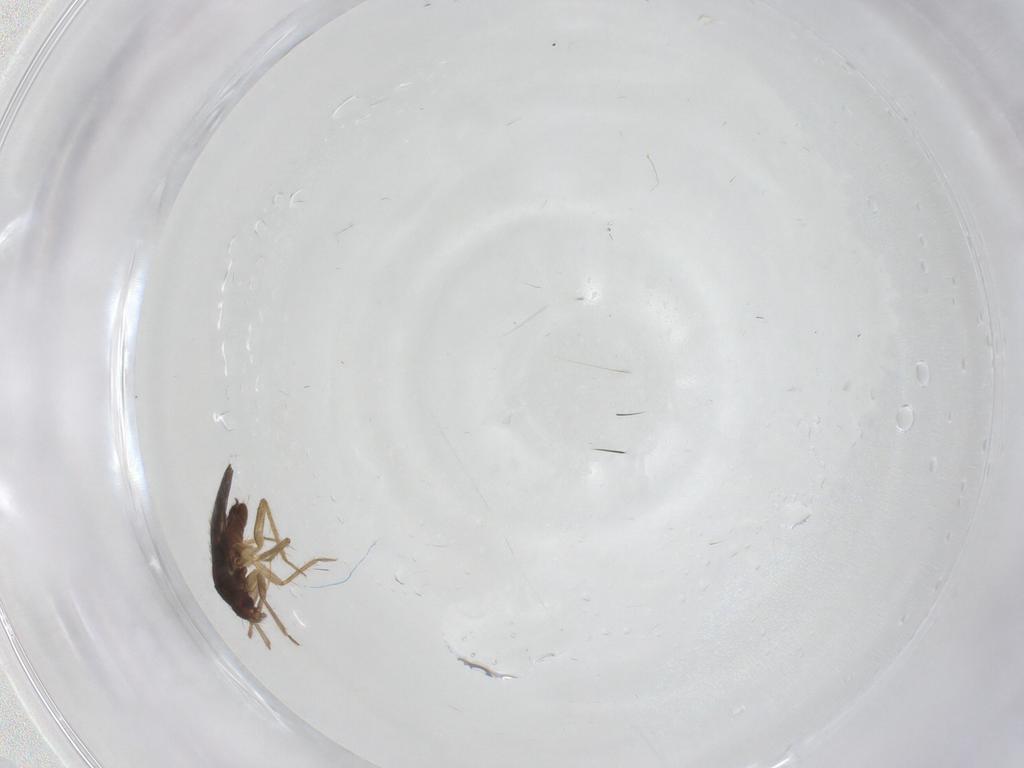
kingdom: Animalia
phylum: Arthropoda
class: Insecta
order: Hemiptera
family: Ceratocombidae
